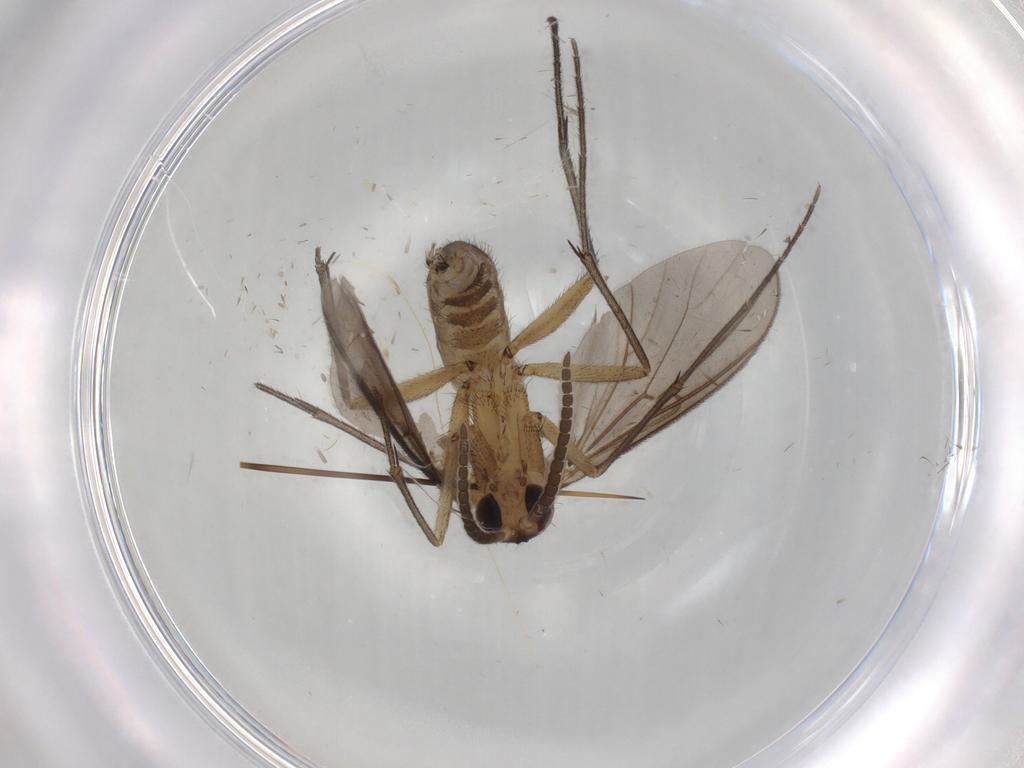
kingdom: Animalia
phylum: Arthropoda
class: Insecta
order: Diptera
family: Mycetophilidae
